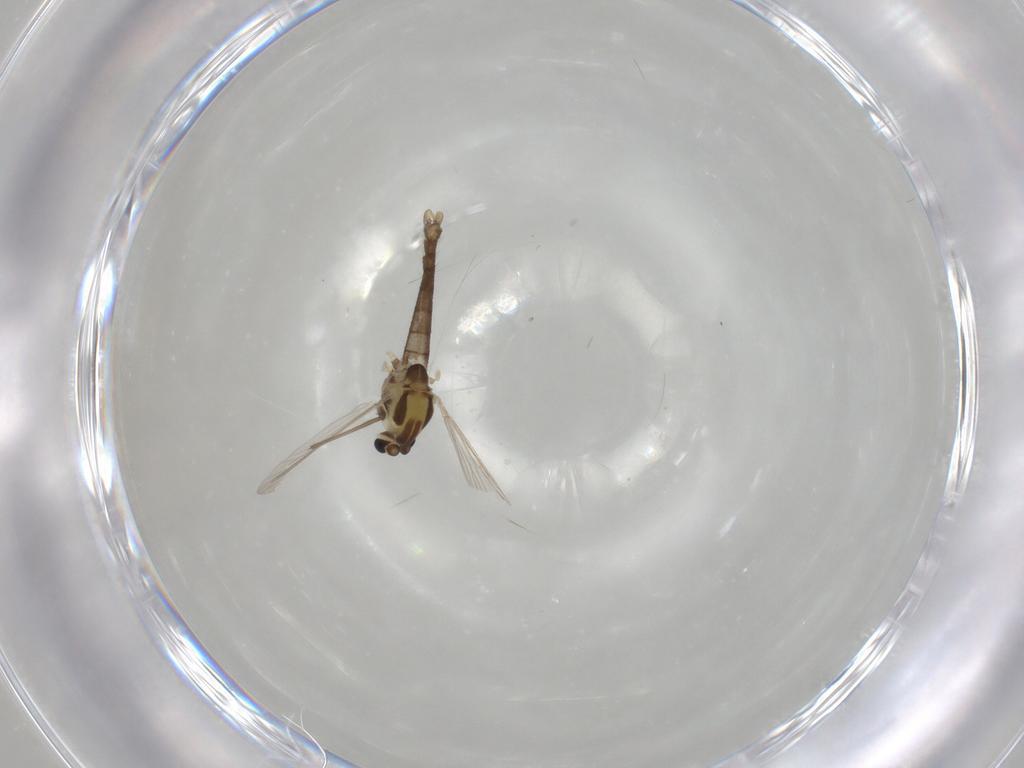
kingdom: Animalia
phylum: Arthropoda
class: Insecta
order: Diptera
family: Chironomidae
